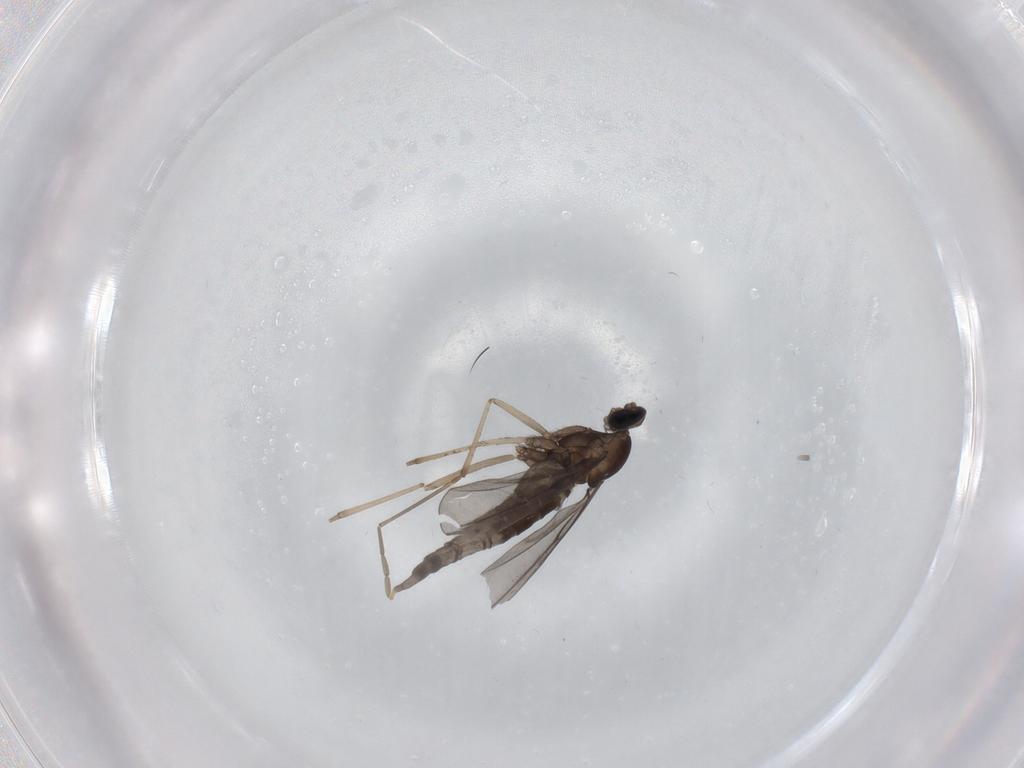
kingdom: Animalia
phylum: Arthropoda
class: Insecta
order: Diptera
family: Cecidomyiidae
